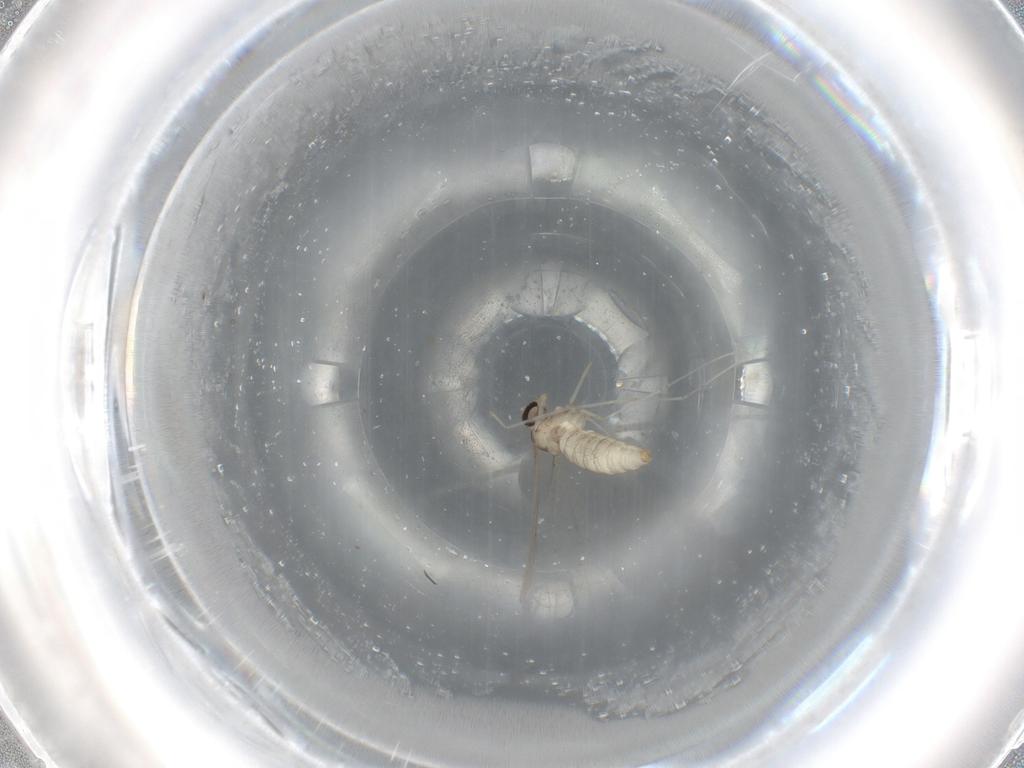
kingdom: Animalia
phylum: Arthropoda
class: Insecta
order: Diptera
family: Cecidomyiidae
